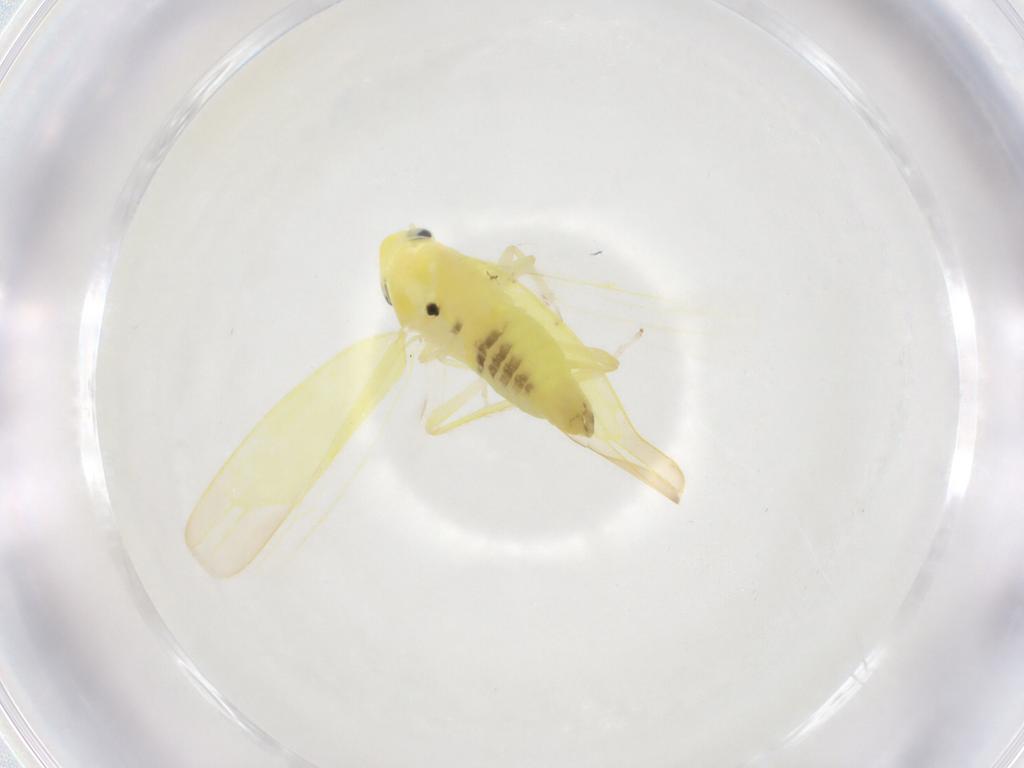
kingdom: Animalia
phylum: Arthropoda
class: Insecta
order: Hemiptera
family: Cicadellidae
